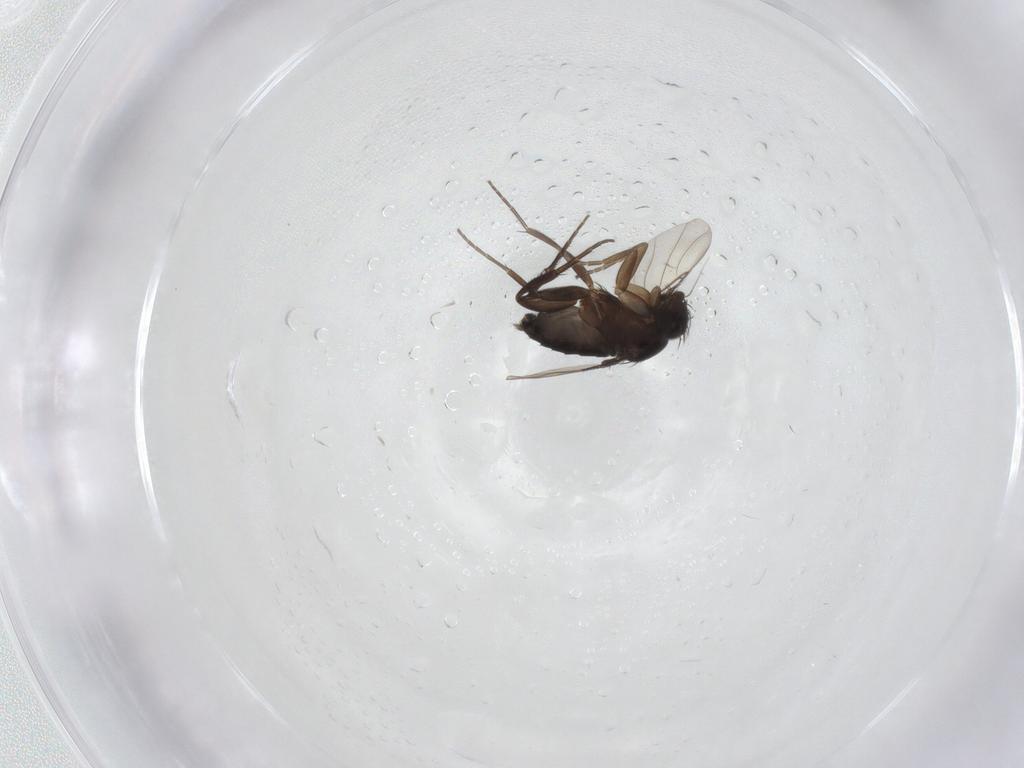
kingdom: Animalia
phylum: Arthropoda
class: Insecta
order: Diptera
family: Phoridae
